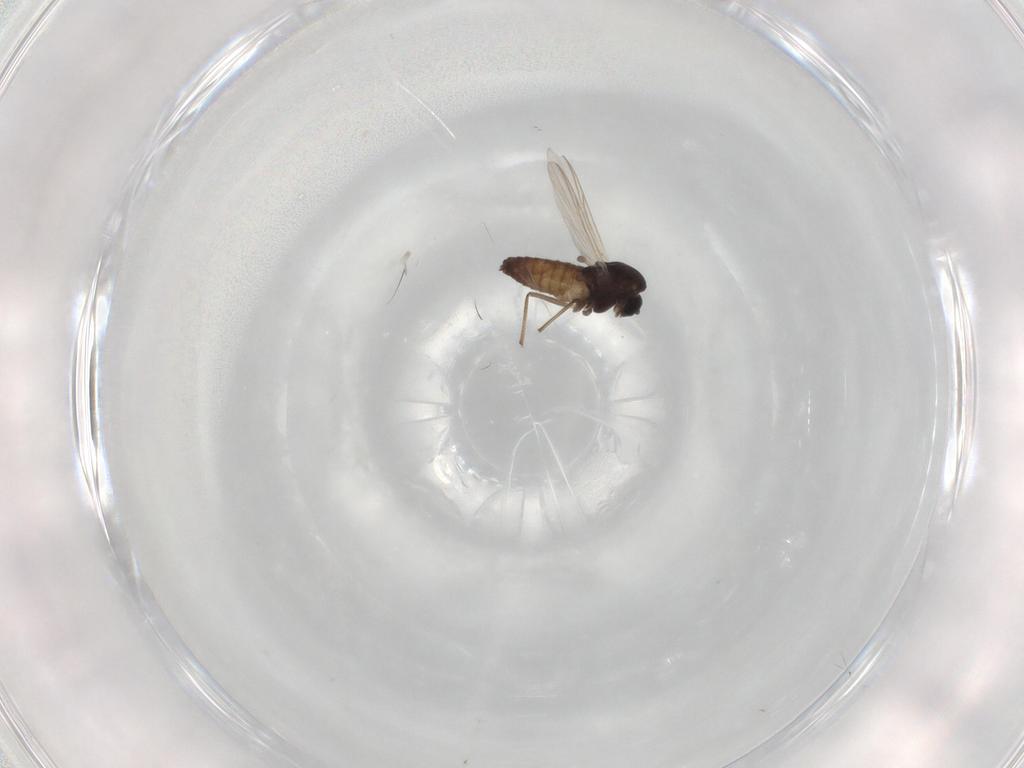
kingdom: Animalia
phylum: Arthropoda
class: Insecta
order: Diptera
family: Chironomidae
